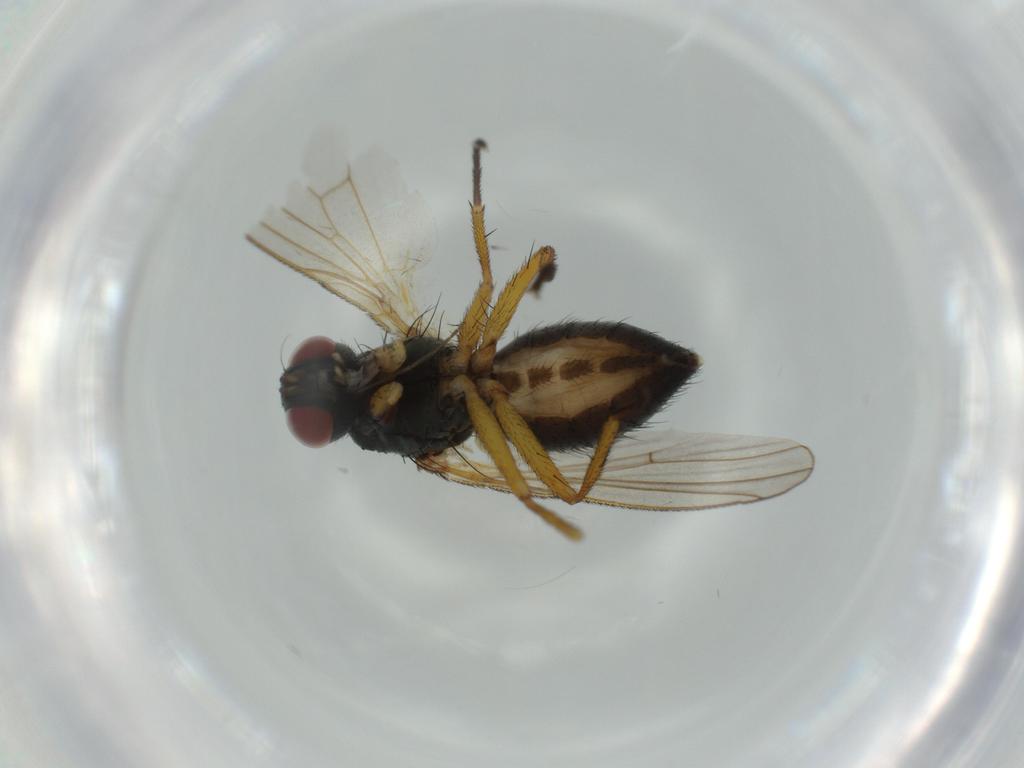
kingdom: Animalia
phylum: Arthropoda
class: Insecta
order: Diptera
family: Muscidae
